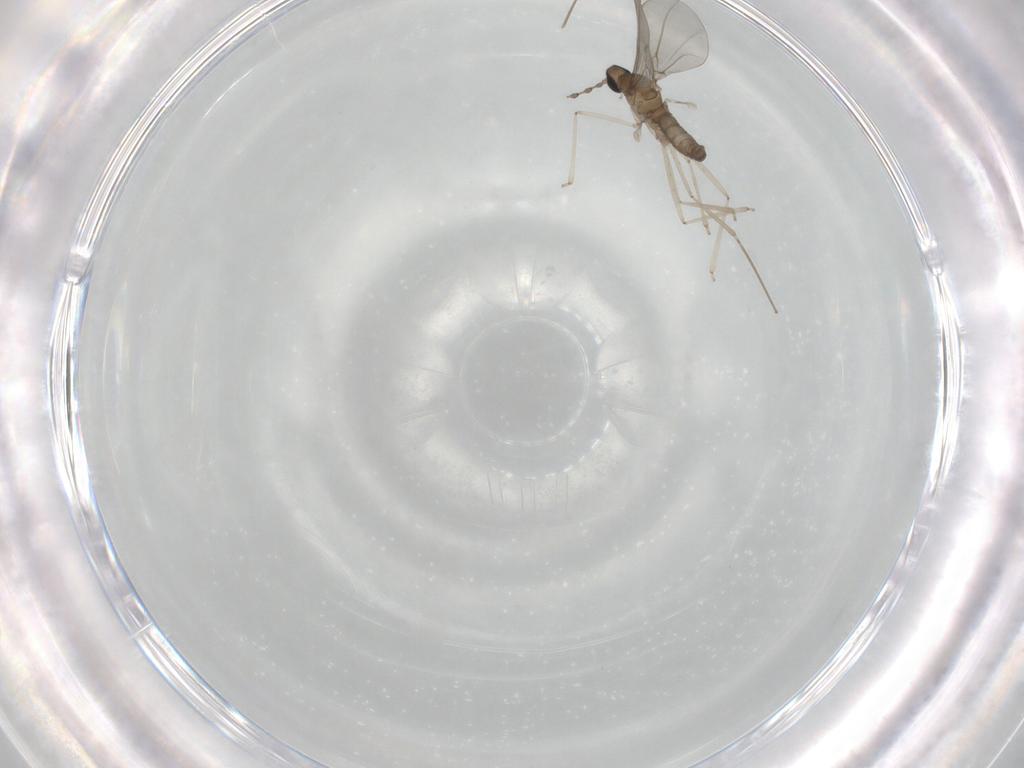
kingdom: Animalia
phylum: Arthropoda
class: Insecta
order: Diptera
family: Cecidomyiidae
